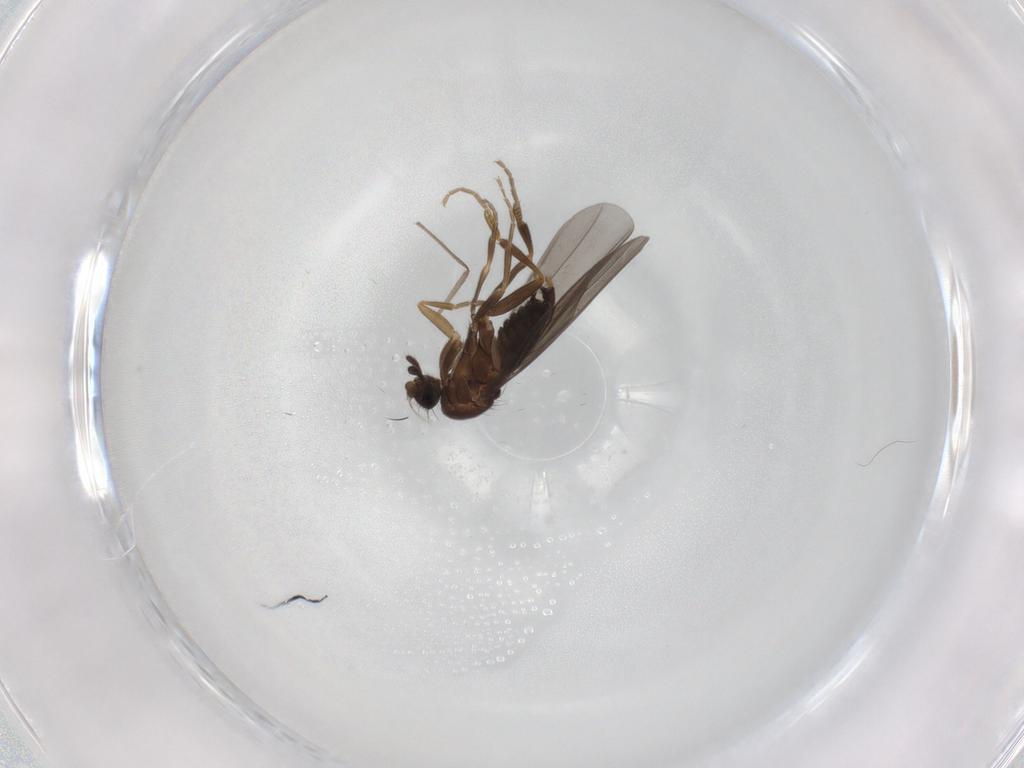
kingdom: Animalia
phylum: Arthropoda
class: Insecta
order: Diptera
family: Chironomidae
